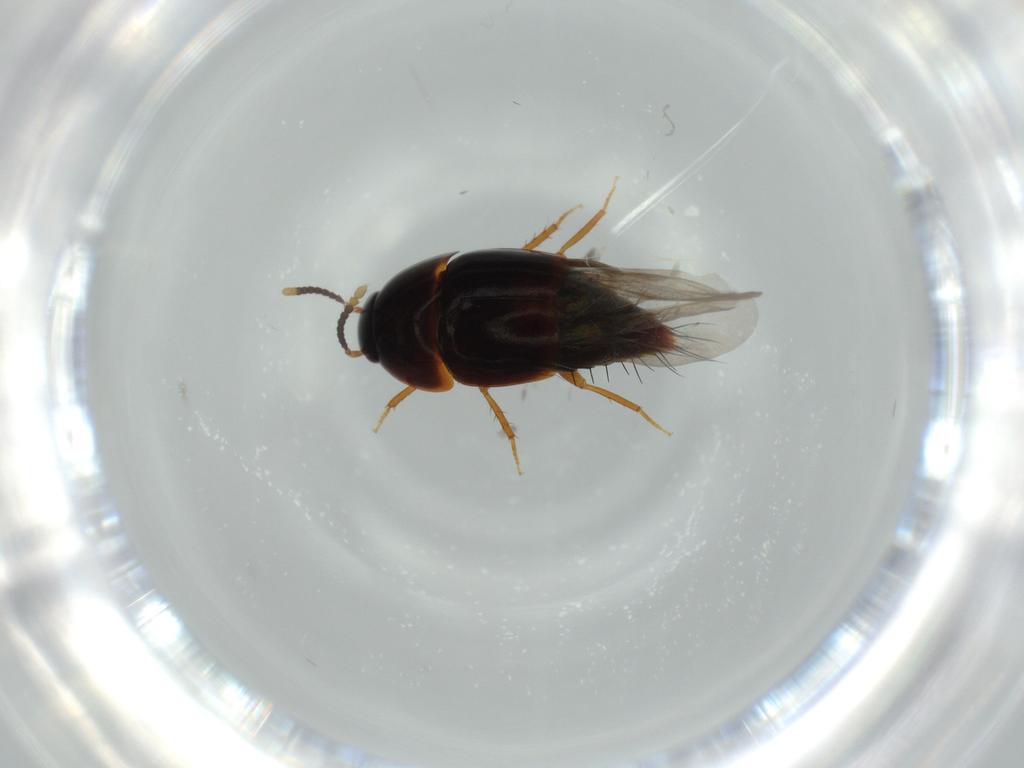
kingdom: Animalia
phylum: Arthropoda
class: Insecta
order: Coleoptera
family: Staphylinidae
